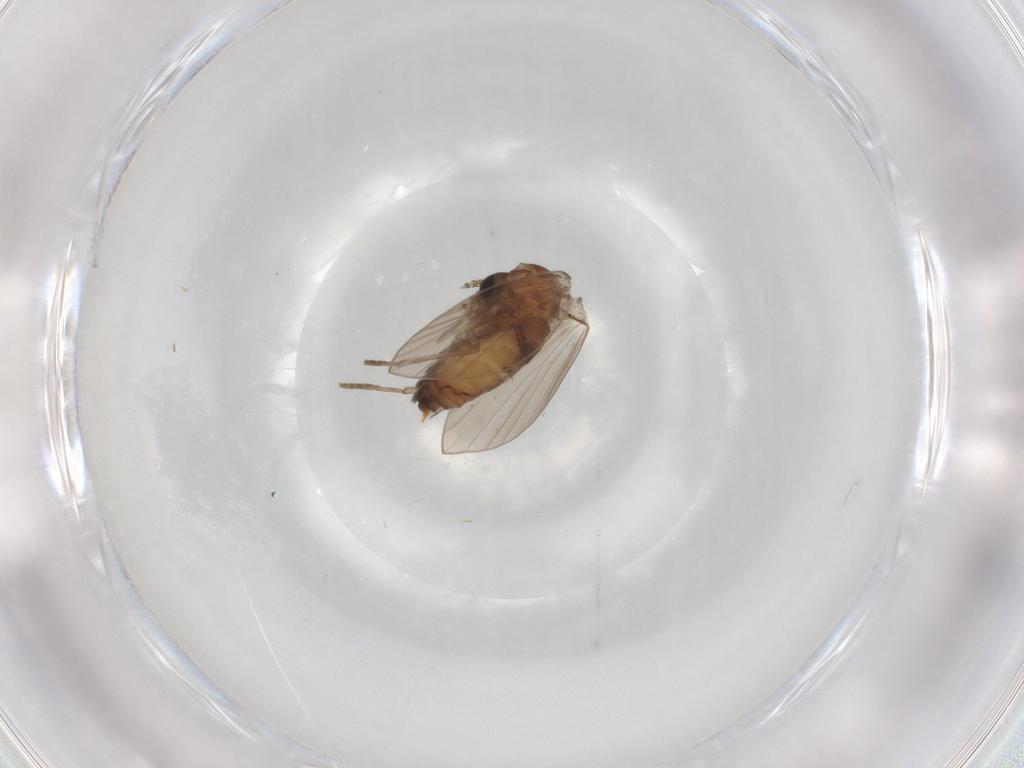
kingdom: Animalia
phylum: Arthropoda
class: Insecta
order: Diptera
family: Psychodidae
